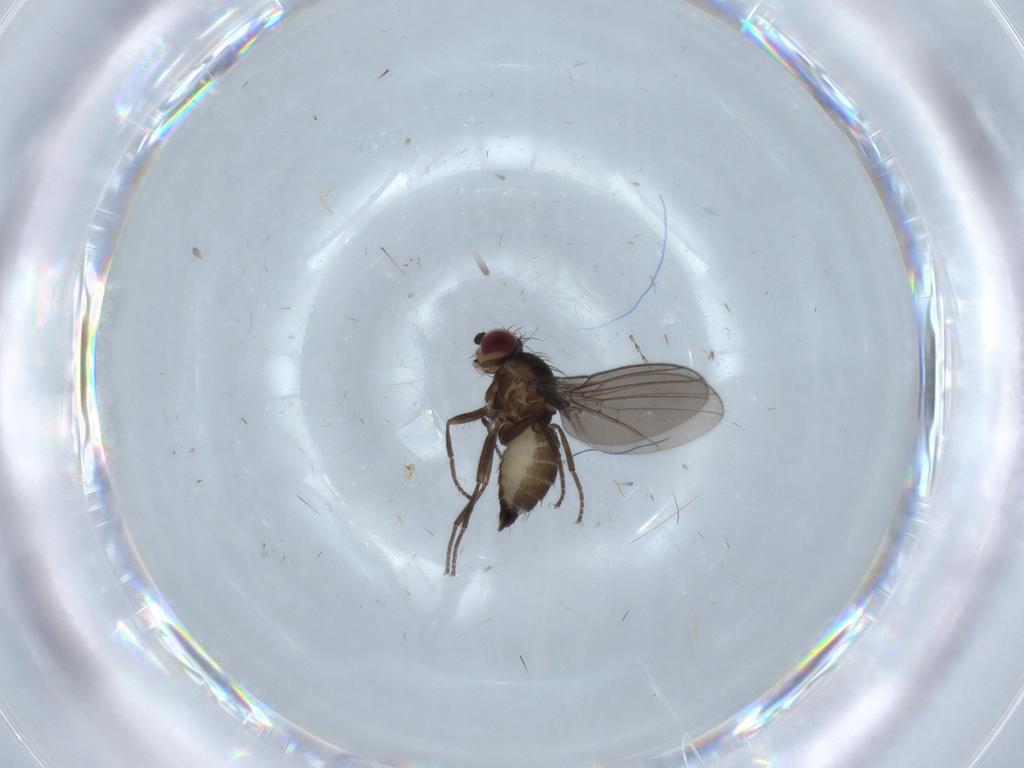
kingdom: Animalia
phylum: Arthropoda
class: Insecta
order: Diptera
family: Agromyzidae
